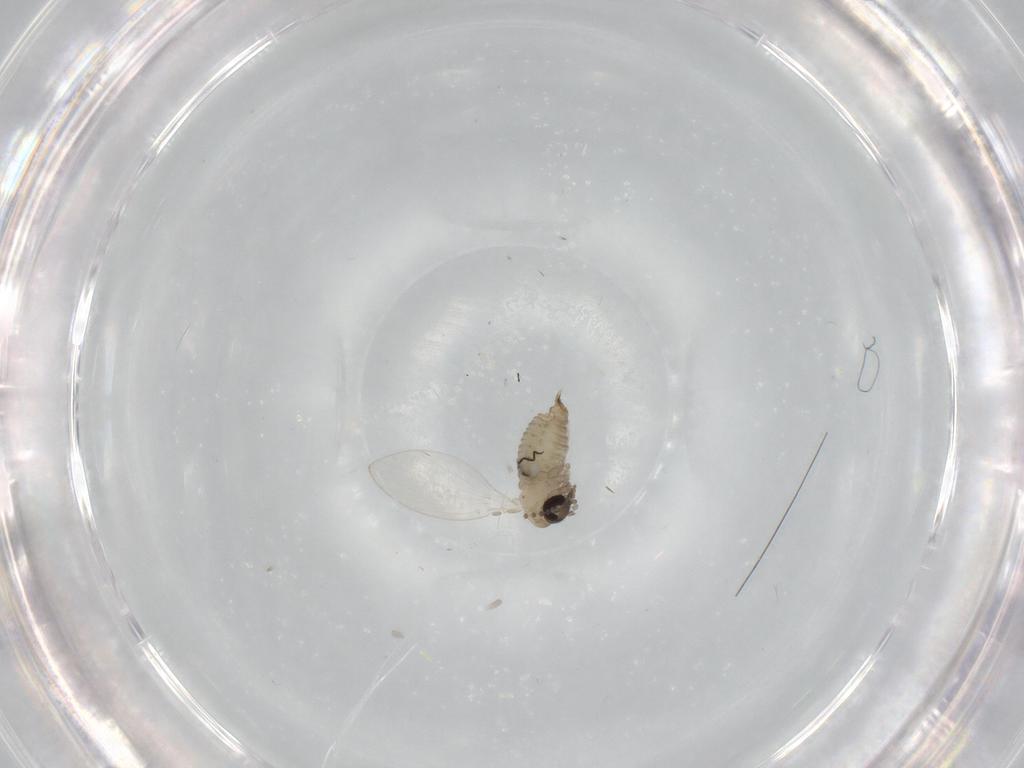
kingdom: Animalia
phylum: Arthropoda
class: Insecta
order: Diptera
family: Psychodidae
